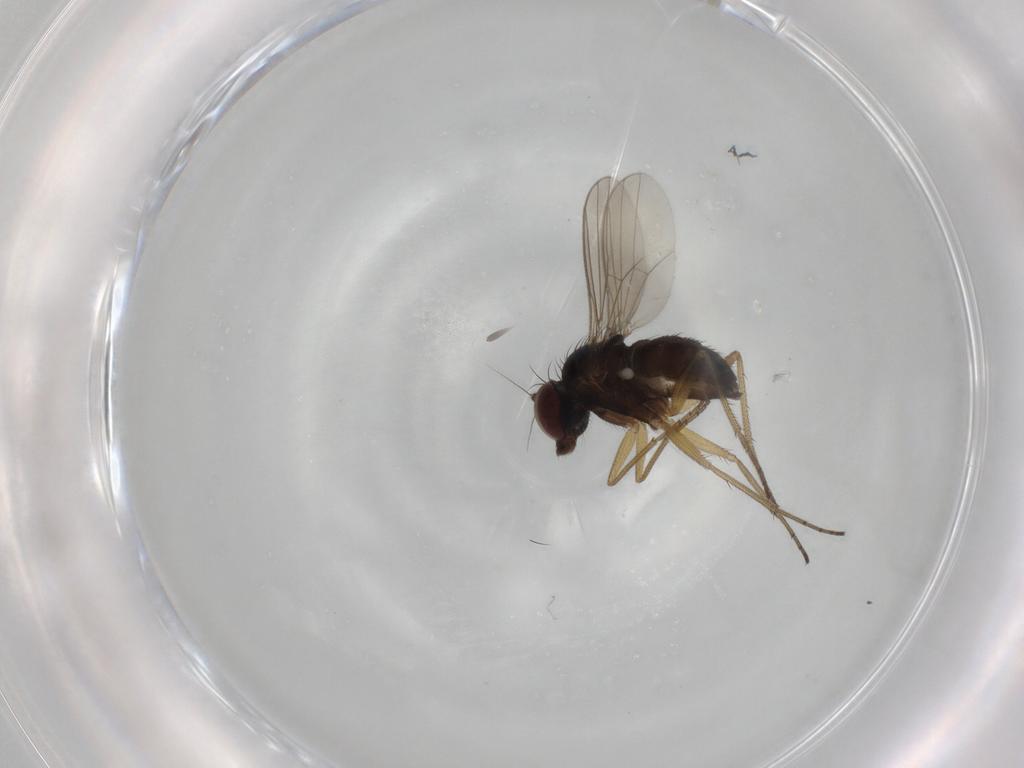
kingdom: Animalia
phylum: Arthropoda
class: Insecta
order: Diptera
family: Dolichopodidae
